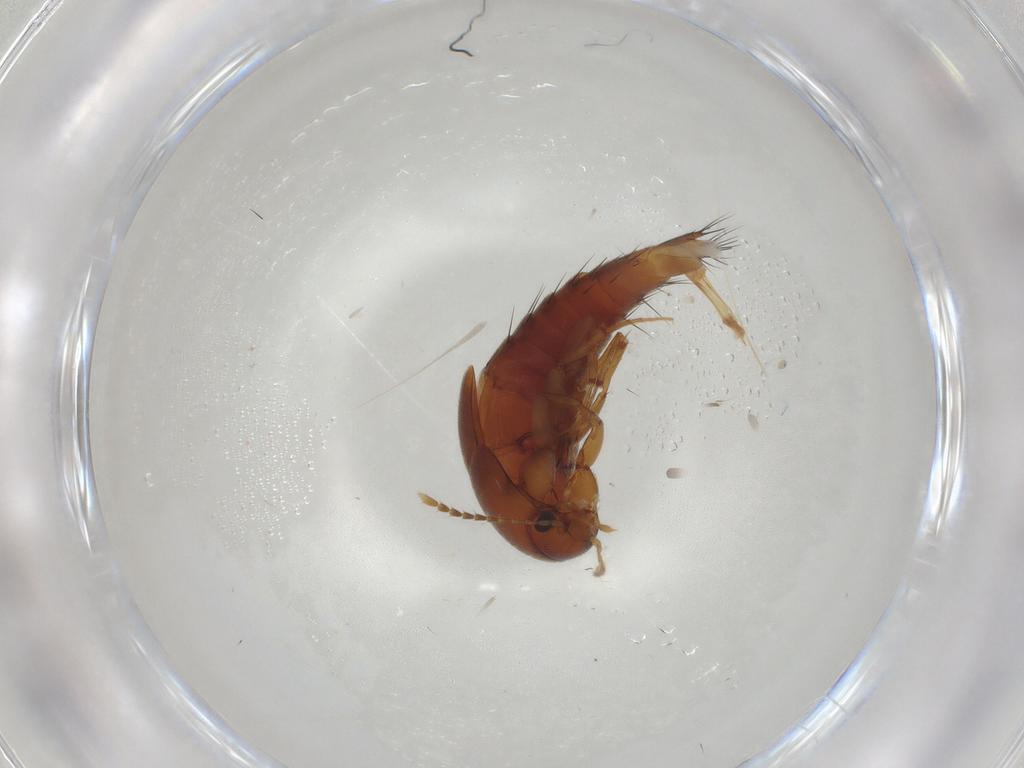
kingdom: Animalia
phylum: Arthropoda
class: Insecta
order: Coleoptera
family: Staphylinidae
